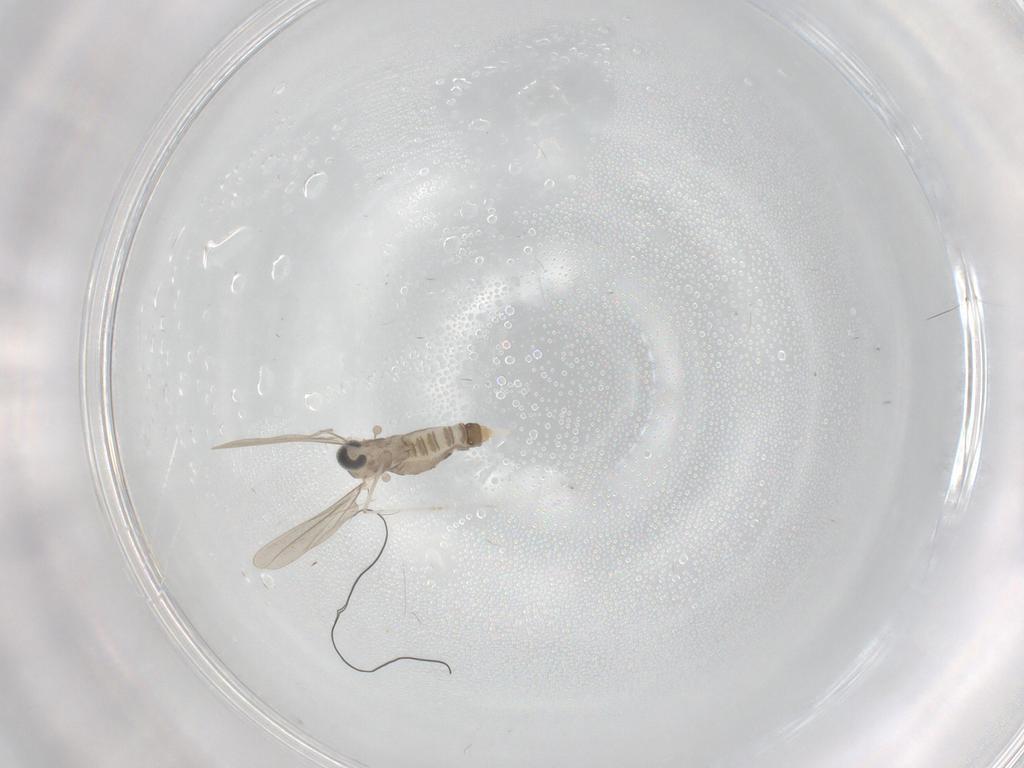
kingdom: Animalia
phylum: Arthropoda
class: Insecta
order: Diptera
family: Cecidomyiidae
